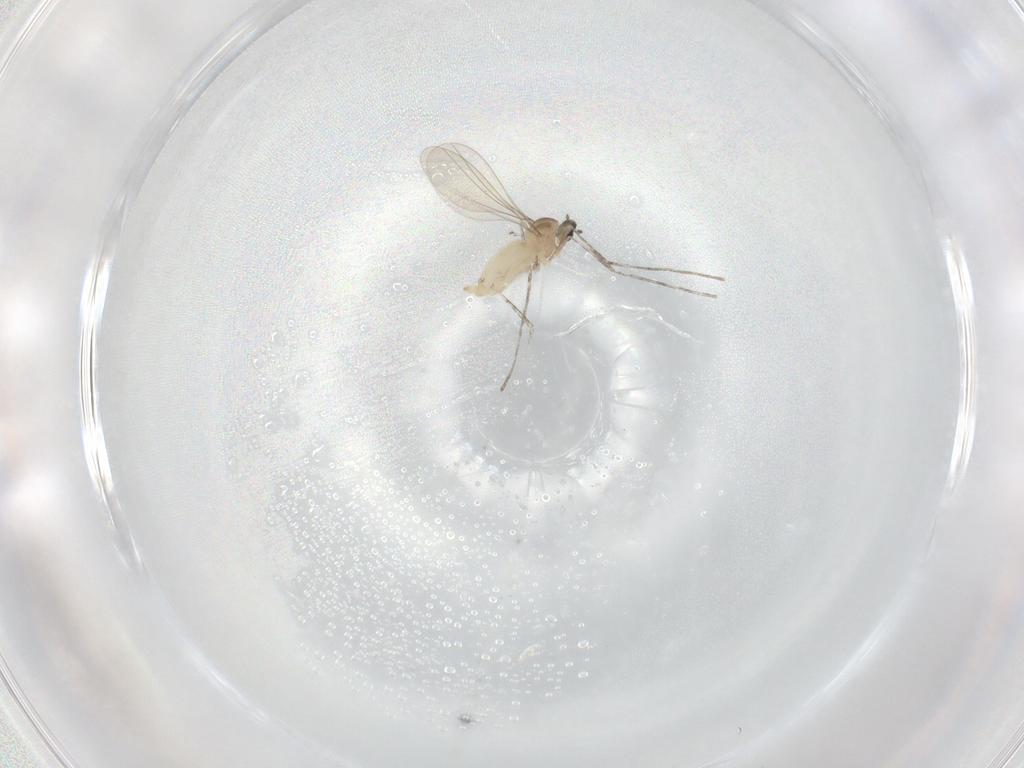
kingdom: Animalia
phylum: Arthropoda
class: Insecta
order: Diptera
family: Cecidomyiidae
